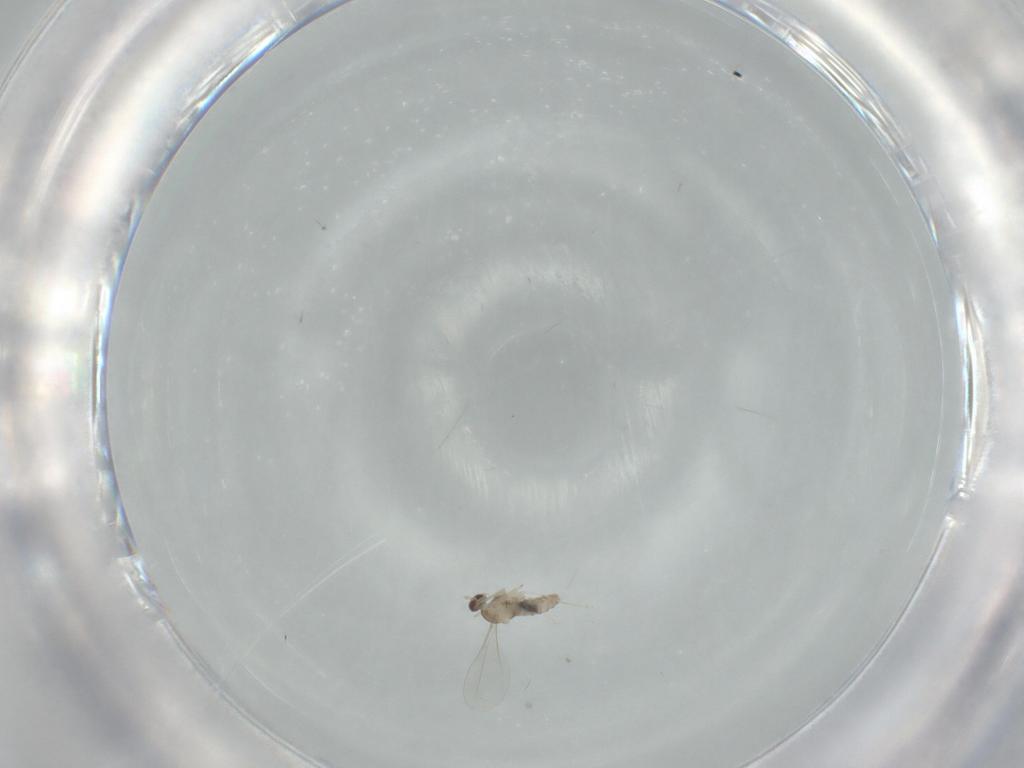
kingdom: Animalia
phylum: Arthropoda
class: Insecta
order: Diptera
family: Cecidomyiidae
